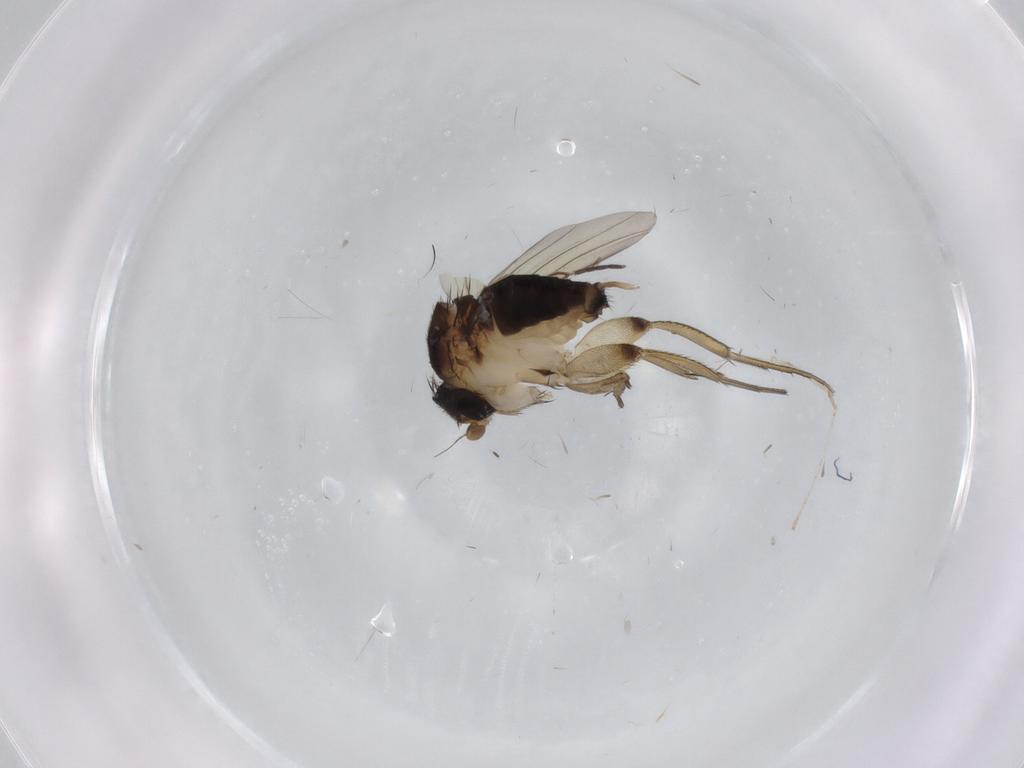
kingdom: Animalia
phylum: Arthropoda
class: Insecta
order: Diptera
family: Phoridae
